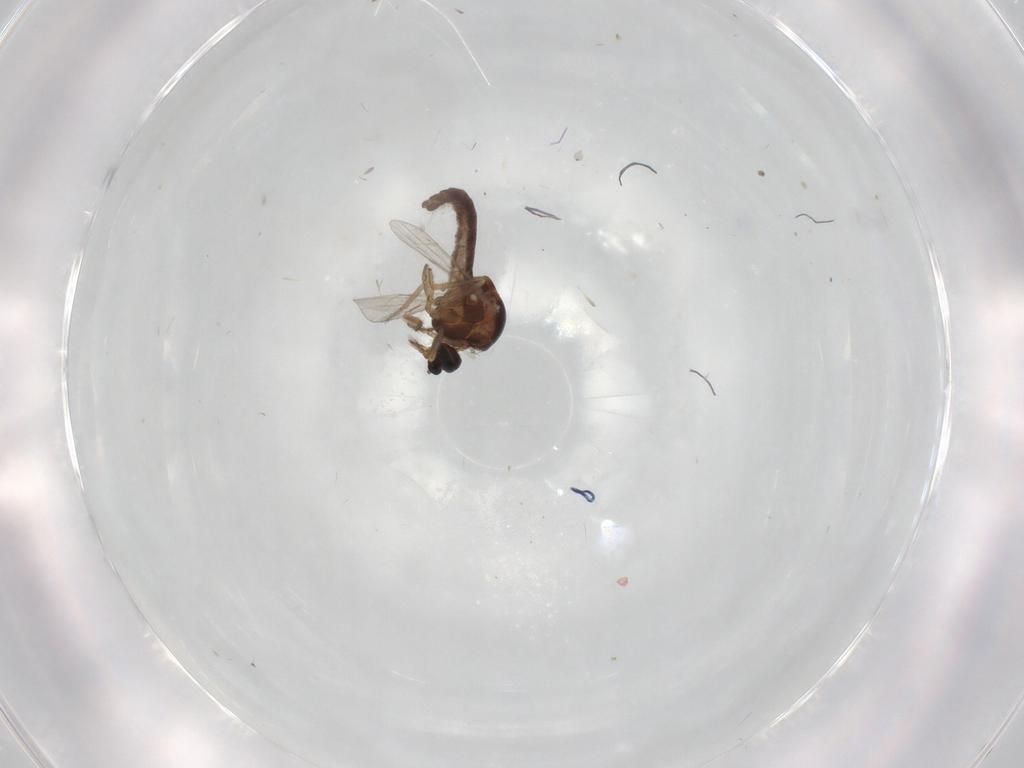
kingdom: Animalia
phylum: Arthropoda
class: Insecta
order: Diptera
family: Ceratopogonidae
